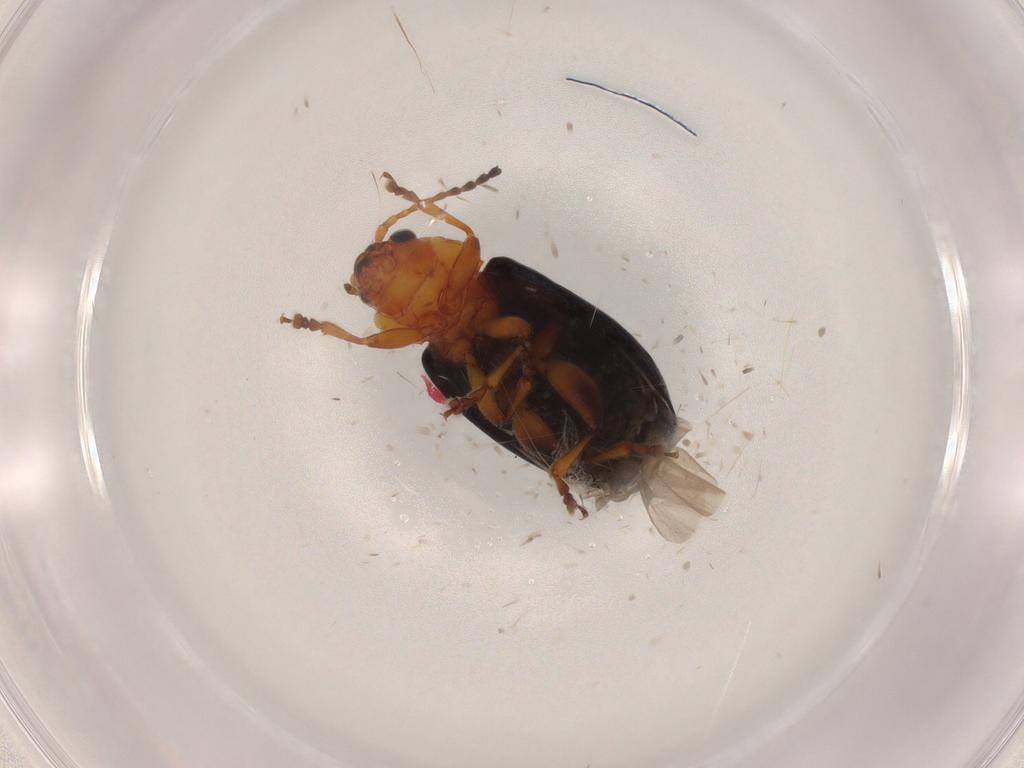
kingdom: Animalia
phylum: Arthropoda
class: Insecta
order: Coleoptera
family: Chrysomelidae
